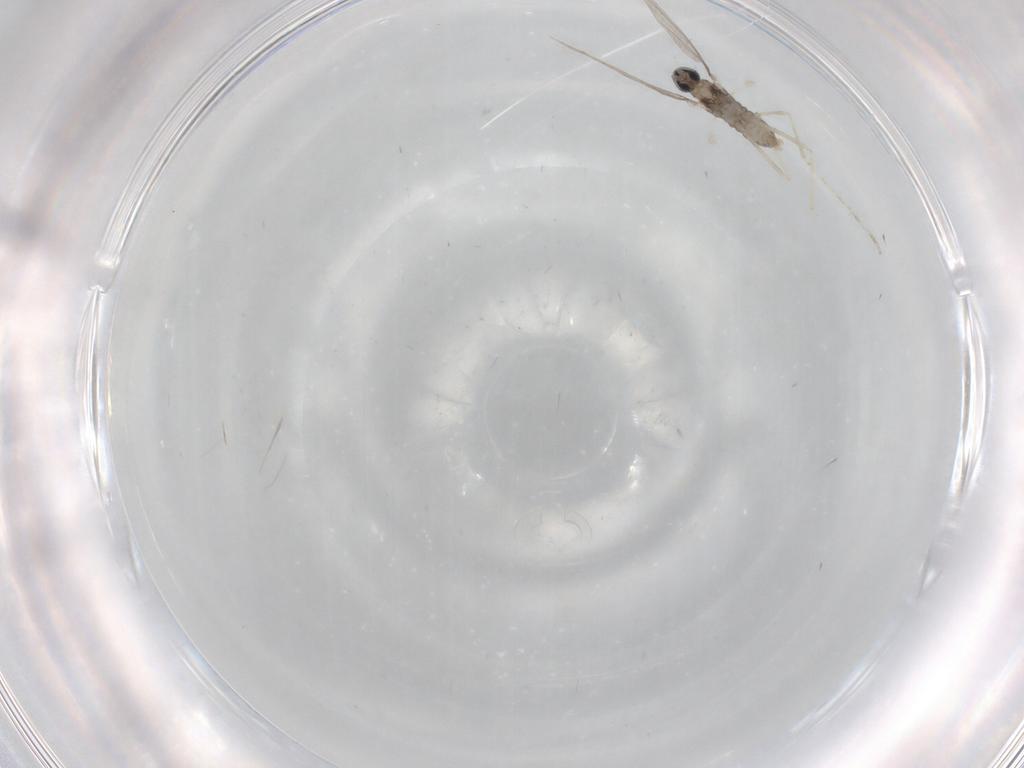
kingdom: Animalia
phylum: Arthropoda
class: Insecta
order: Diptera
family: Cecidomyiidae
